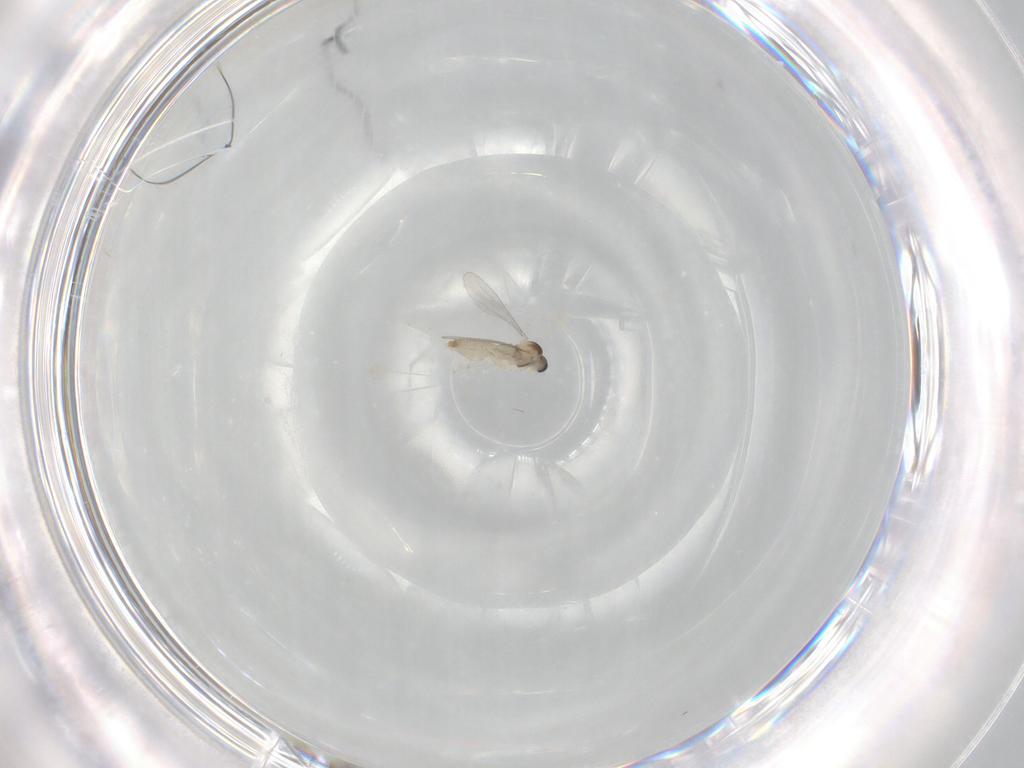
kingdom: Animalia
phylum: Arthropoda
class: Insecta
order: Diptera
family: Cecidomyiidae
